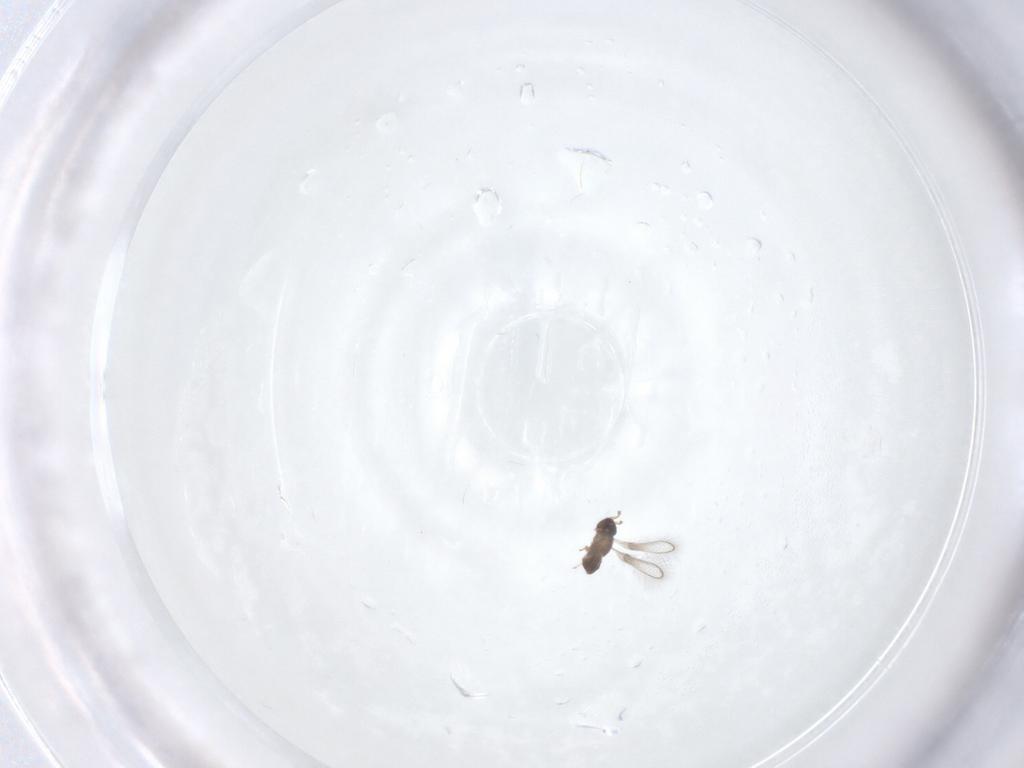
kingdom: Animalia
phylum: Arthropoda
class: Insecta
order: Hymenoptera
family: Mymaridae
